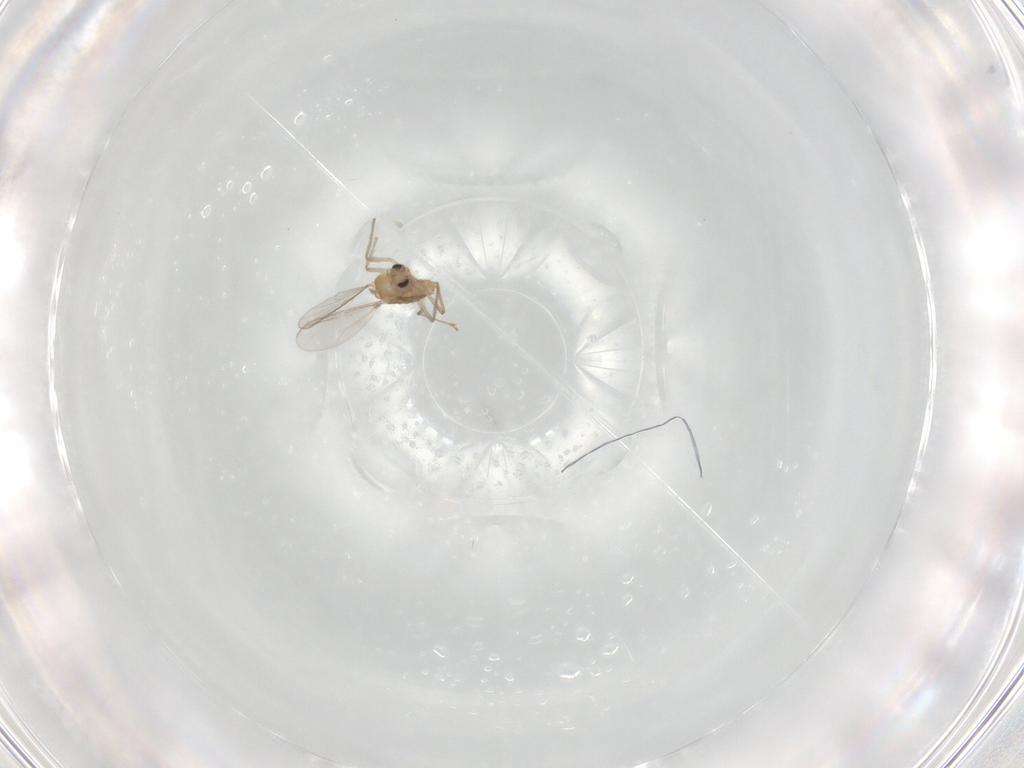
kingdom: Animalia
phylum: Arthropoda
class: Insecta
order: Diptera
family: Chironomidae
